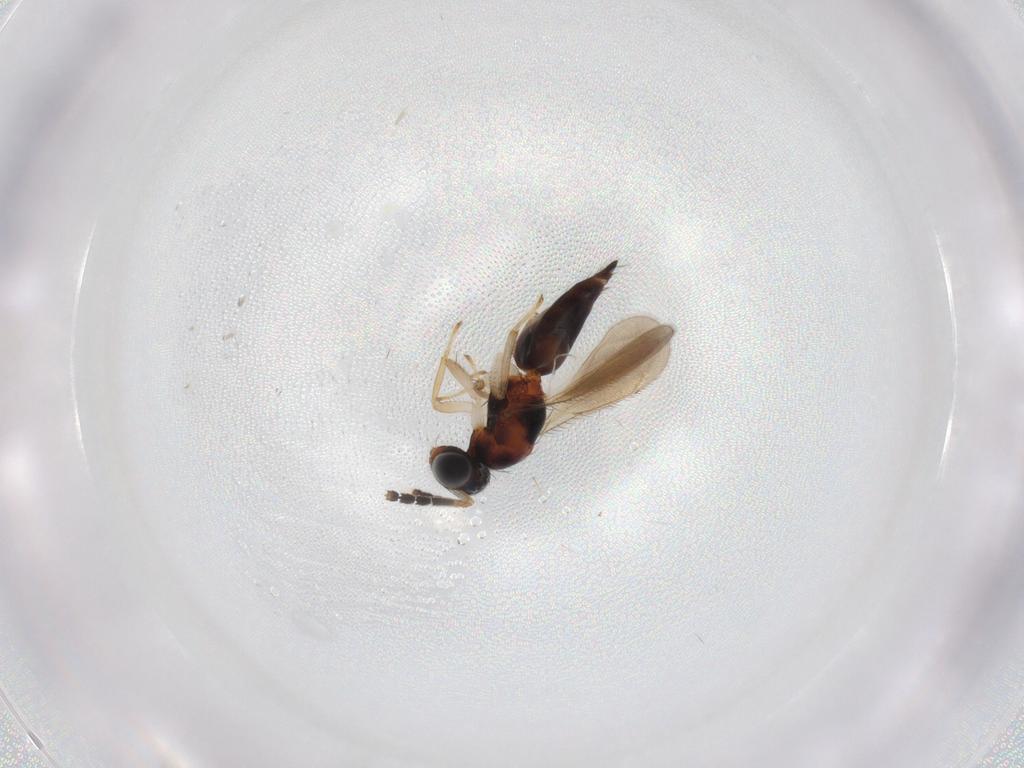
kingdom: Animalia
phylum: Arthropoda
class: Insecta
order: Hymenoptera
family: Eulophidae
